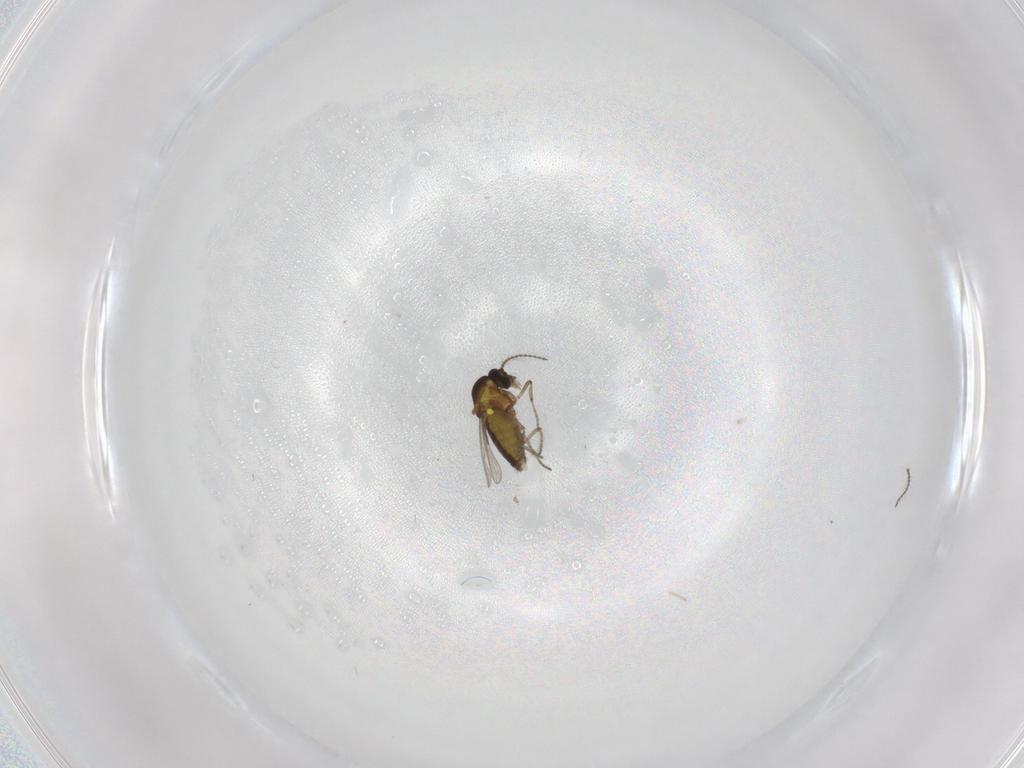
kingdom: Animalia
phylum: Arthropoda
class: Insecta
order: Diptera
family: Cecidomyiidae
